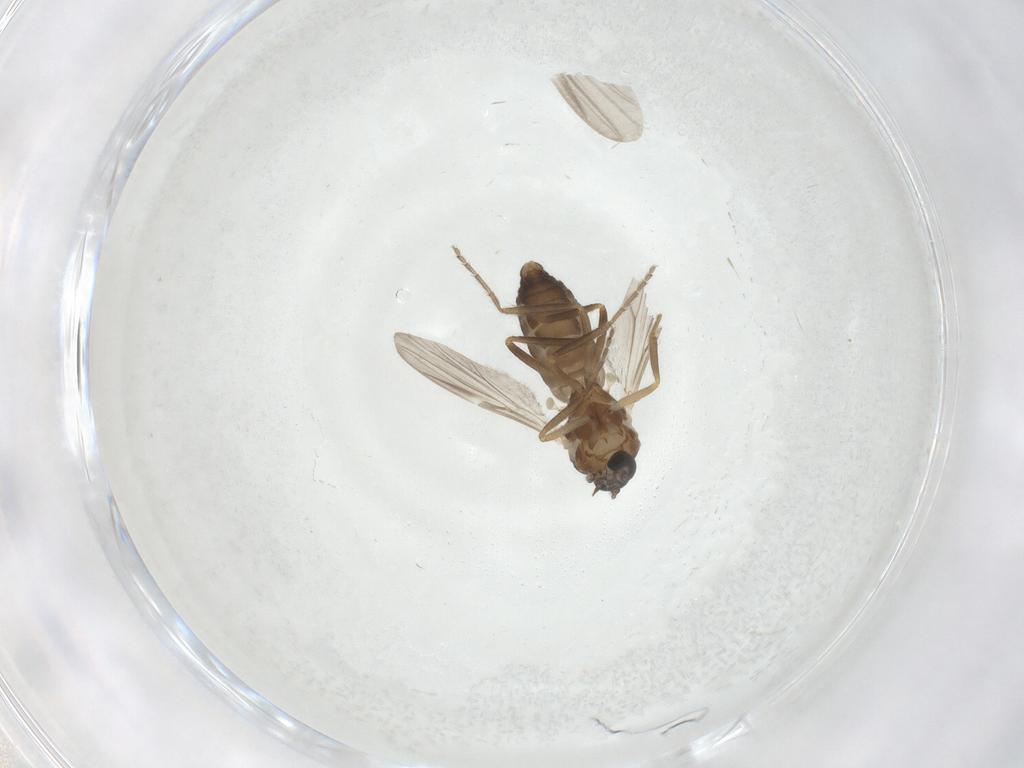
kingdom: Animalia
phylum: Arthropoda
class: Insecta
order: Diptera
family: Ceratopogonidae
